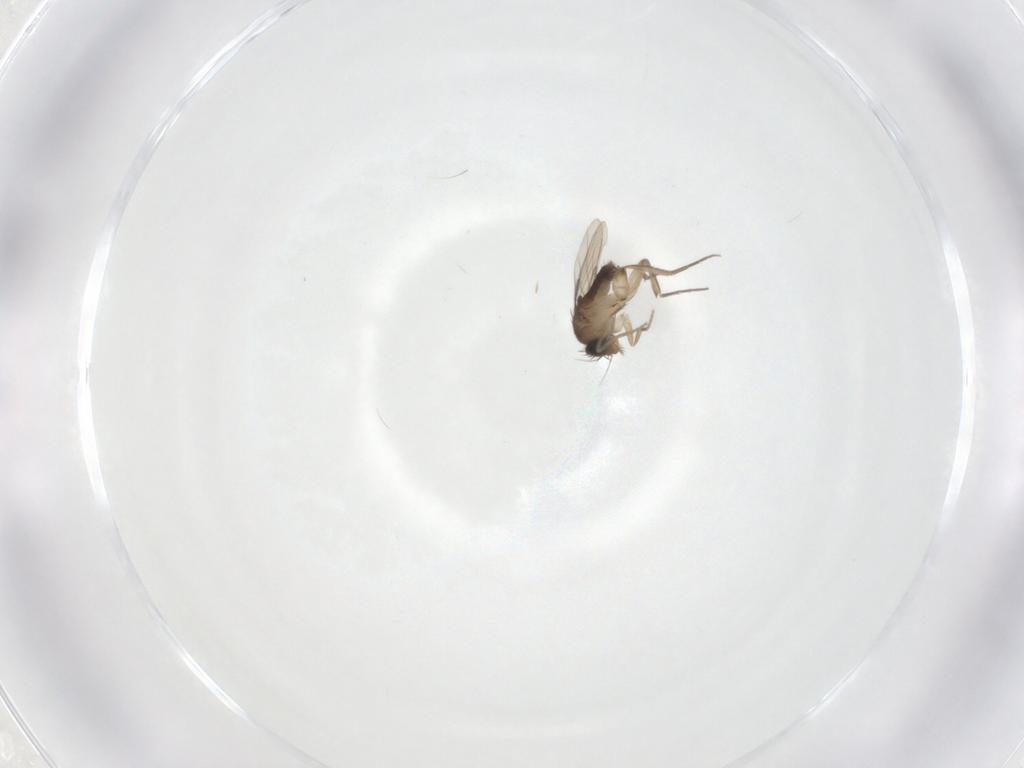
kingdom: Animalia
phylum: Arthropoda
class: Insecta
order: Diptera
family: Phoridae
